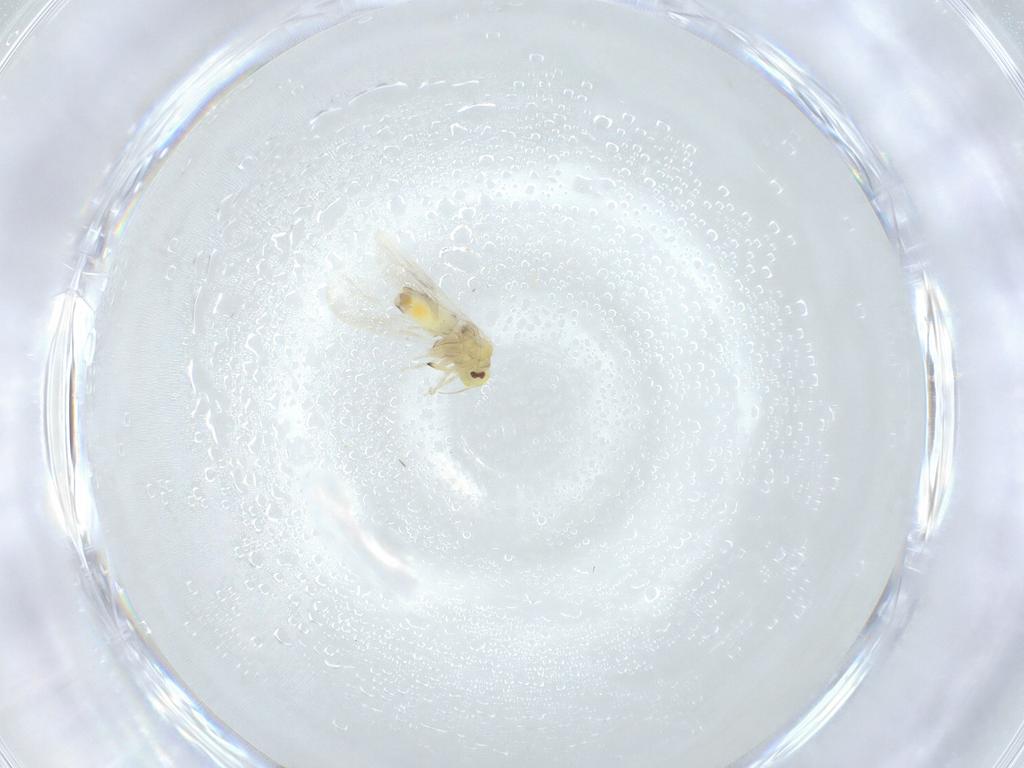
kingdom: Animalia
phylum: Arthropoda
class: Insecta
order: Hemiptera
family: Aleyrodidae
